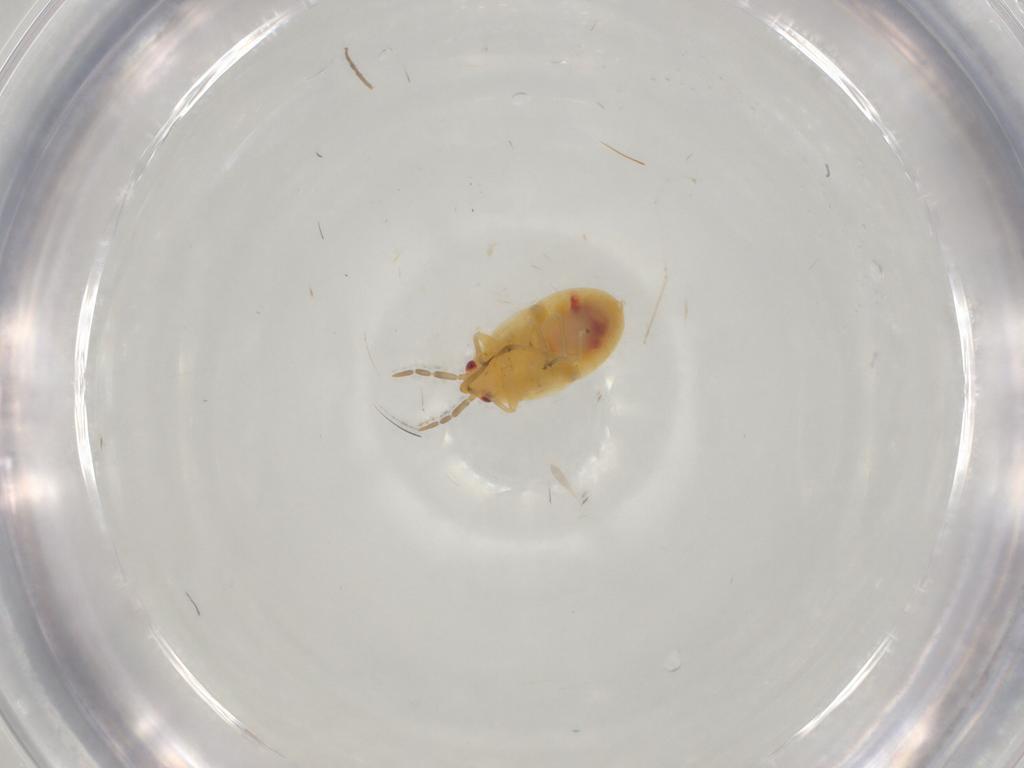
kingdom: Animalia
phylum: Arthropoda
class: Insecta
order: Hemiptera
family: Anthocoridae
